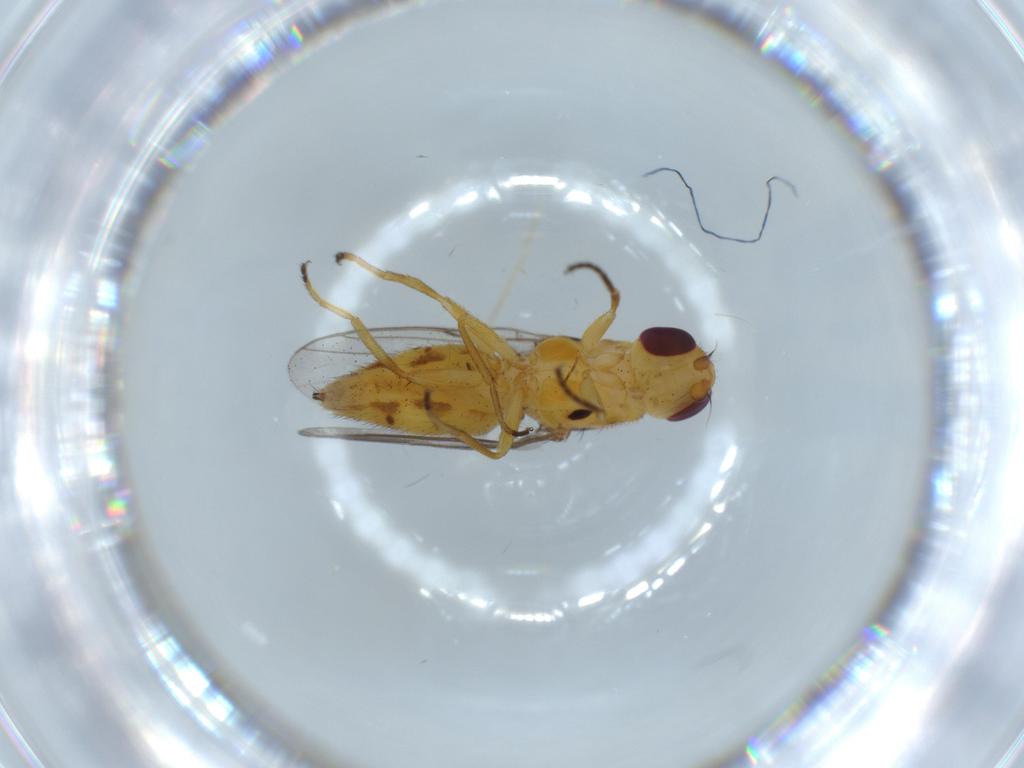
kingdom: Animalia
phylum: Arthropoda
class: Insecta
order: Diptera
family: Chloropidae
